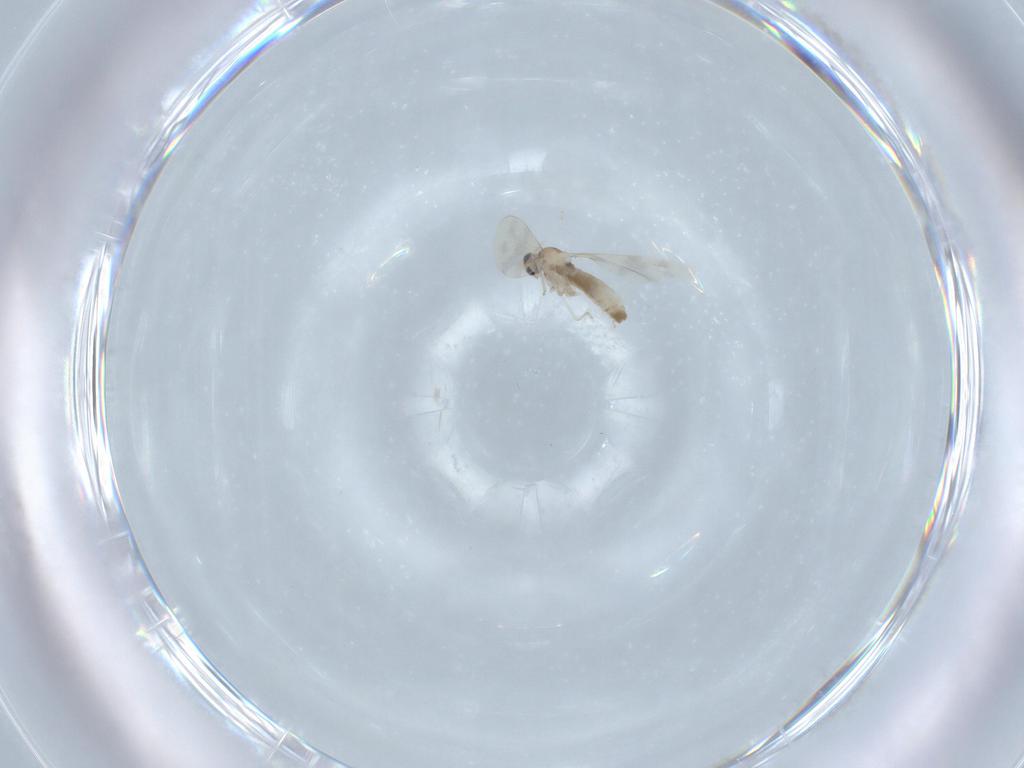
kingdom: Animalia
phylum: Arthropoda
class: Insecta
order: Diptera
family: Cecidomyiidae
